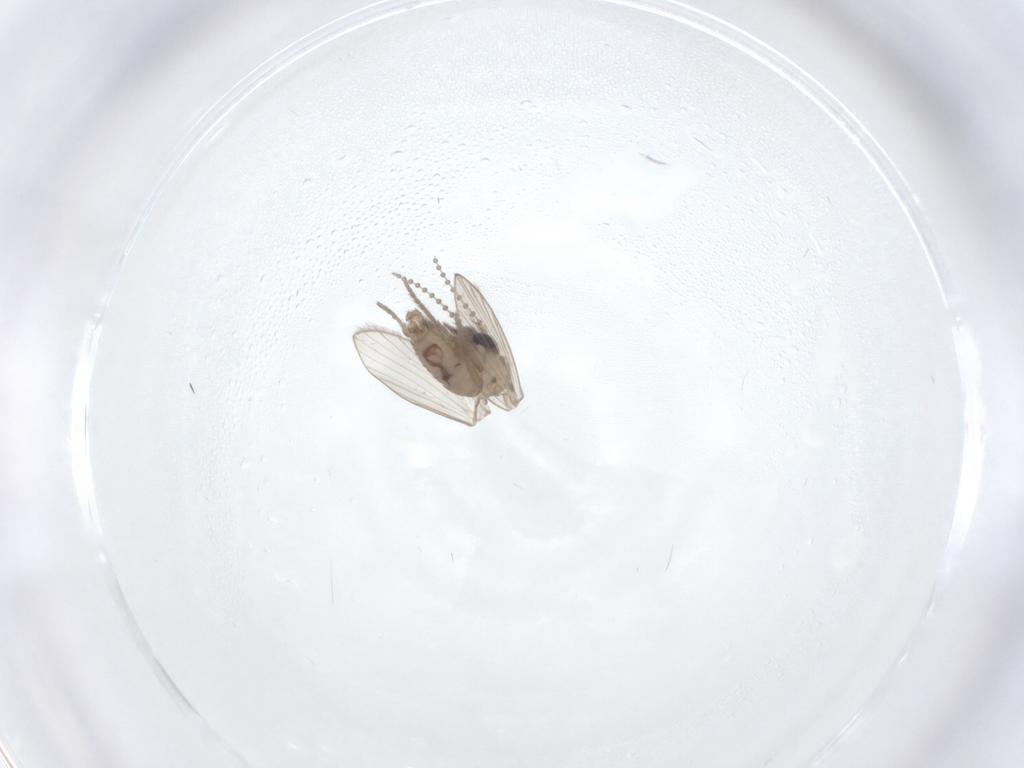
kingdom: Animalia
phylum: Arthropoda
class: Insecta
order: Diptera
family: Psychodidae
